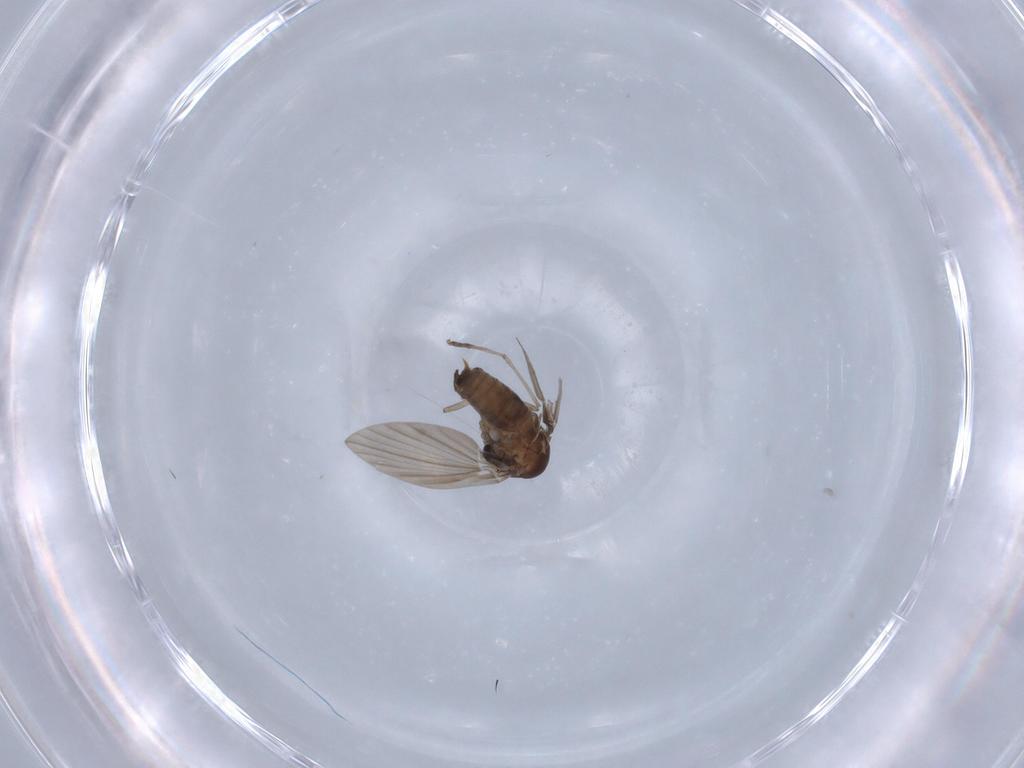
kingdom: Animalia
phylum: Arthropoda
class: Insecta
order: Diptera
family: Psychodidae
